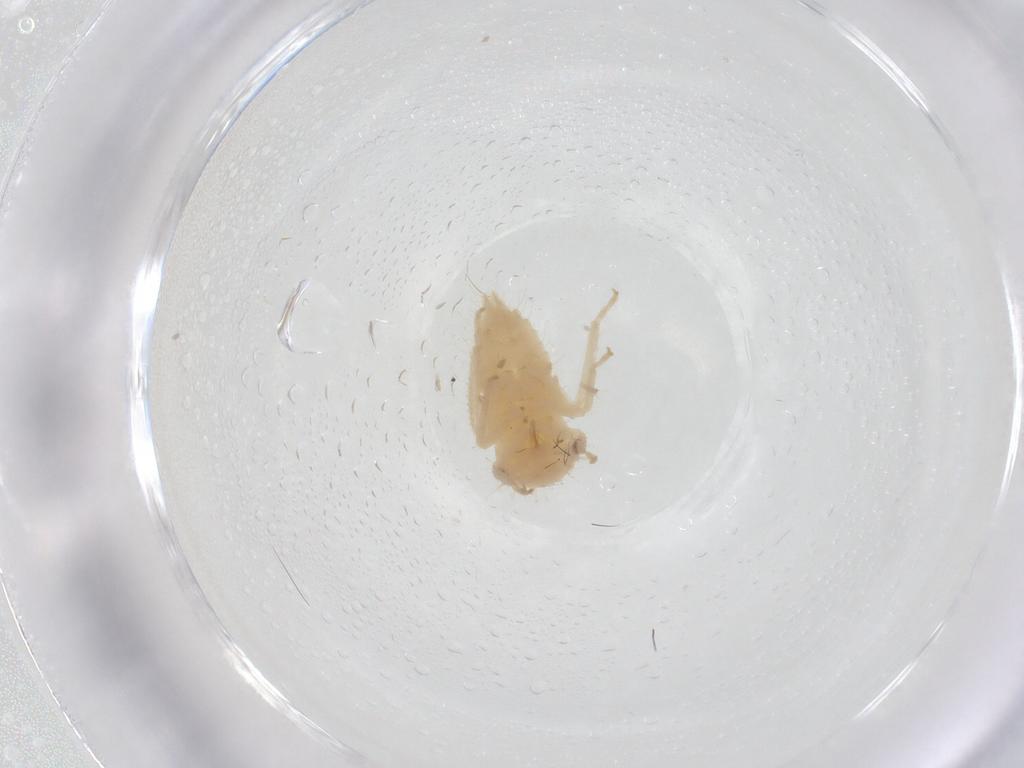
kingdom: Animalia
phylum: Arthropoda
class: Insecta
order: Hemiptera
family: Cicadellidae
